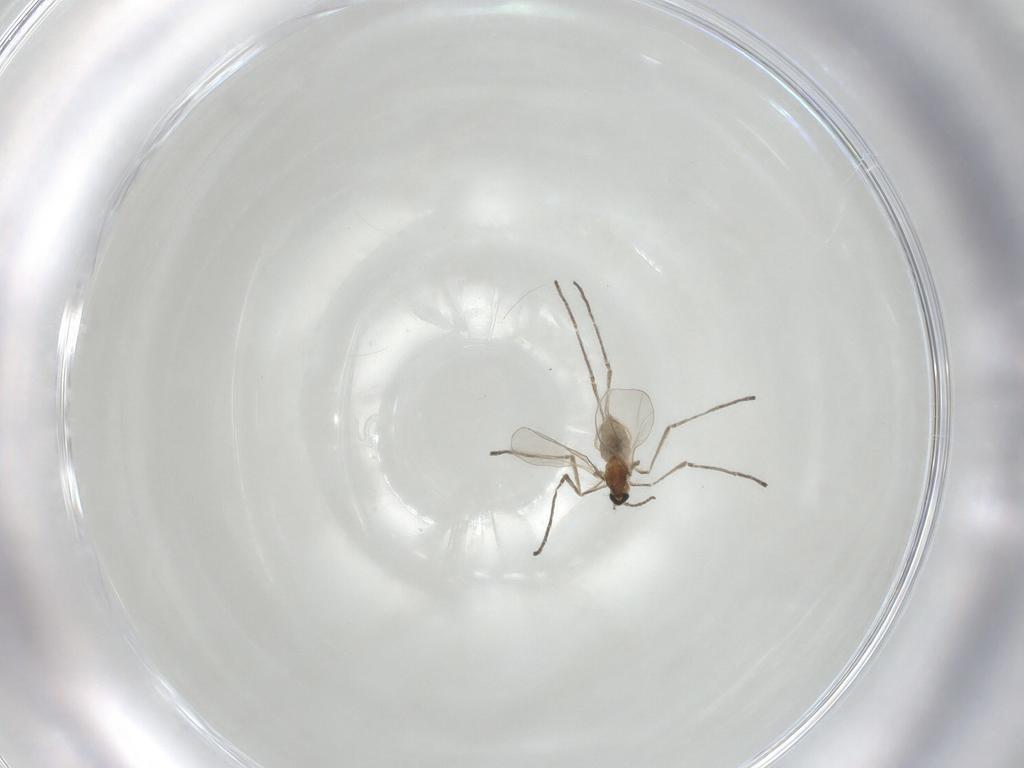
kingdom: Animalia
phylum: Arthropoda
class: Insecta
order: Diptera
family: Cecidomyiidae
